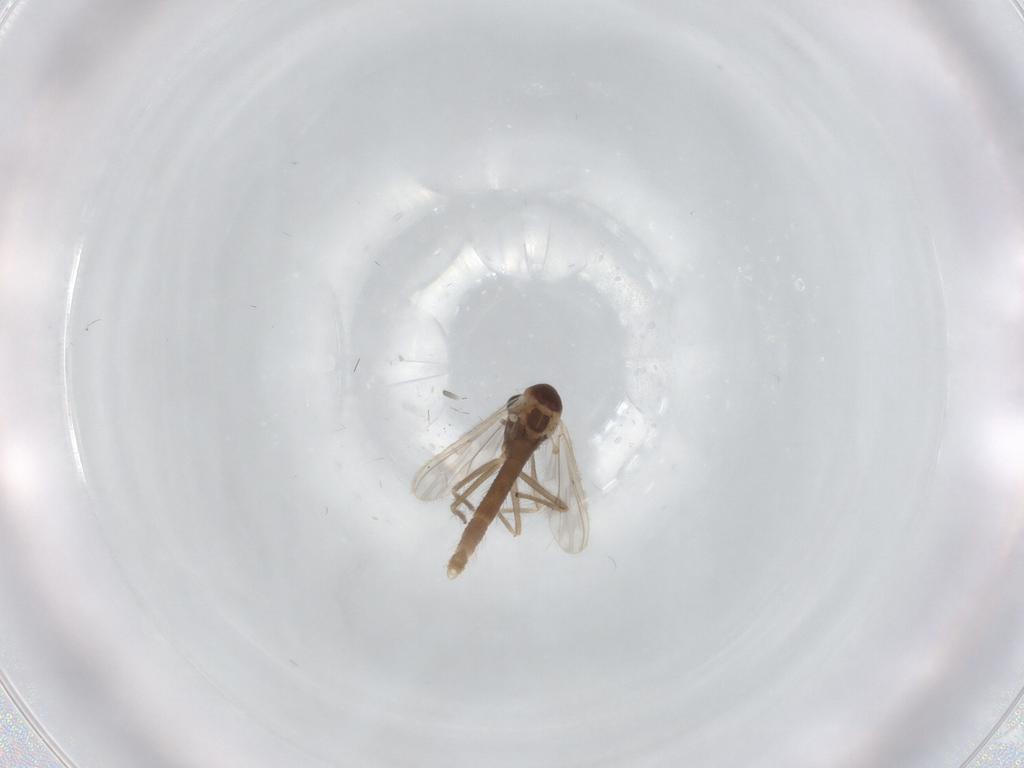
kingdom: Animalia
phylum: Arthropoda
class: Insecta
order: Diptera
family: Chironomidae
